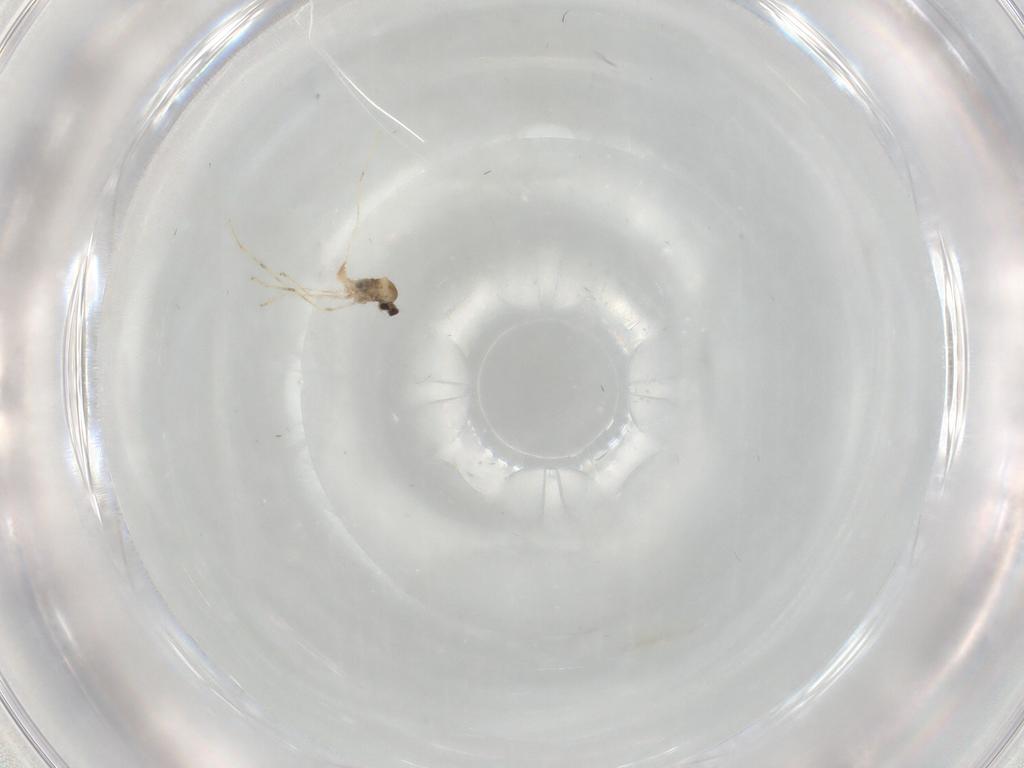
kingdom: Animalia
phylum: Arthropoda
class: Insecta
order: Diptera
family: Cecidomyiidae
